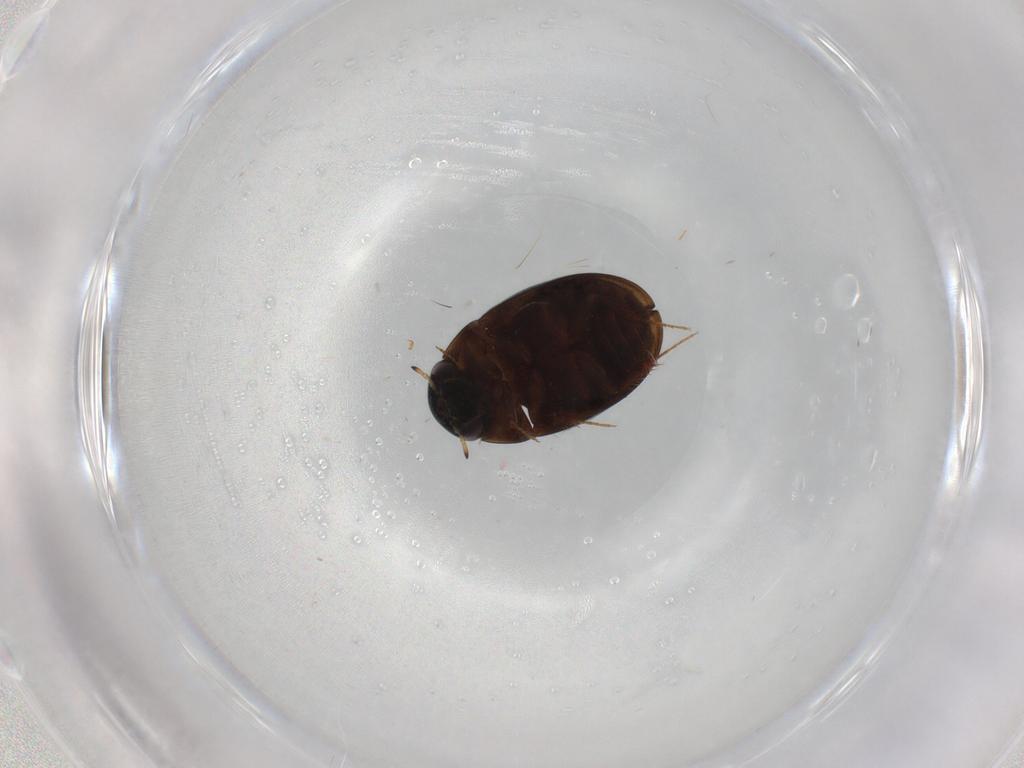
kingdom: Animalia
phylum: Arthropoda
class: Insecta
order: Coleoptera
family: Hydrophilidae
